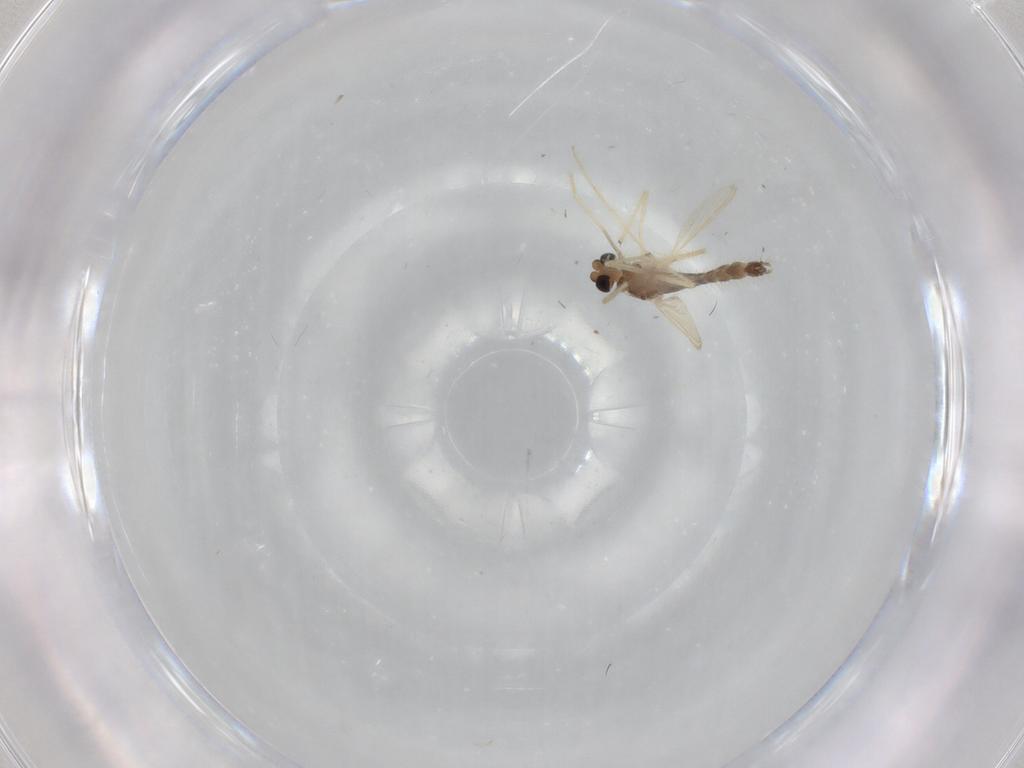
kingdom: Animalia
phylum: Arthropoda
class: Insecta
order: Diptera
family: Chironomidae
